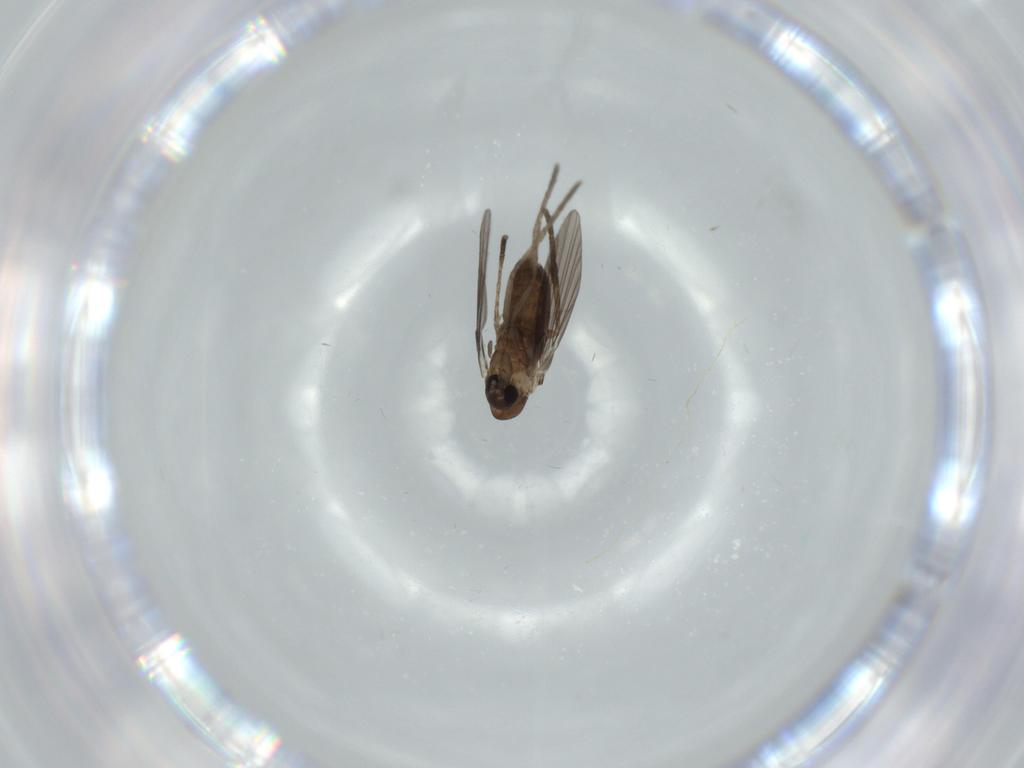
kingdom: Animalia
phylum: Arthropoda
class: Insecta
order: Diptera
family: Psychodidae
